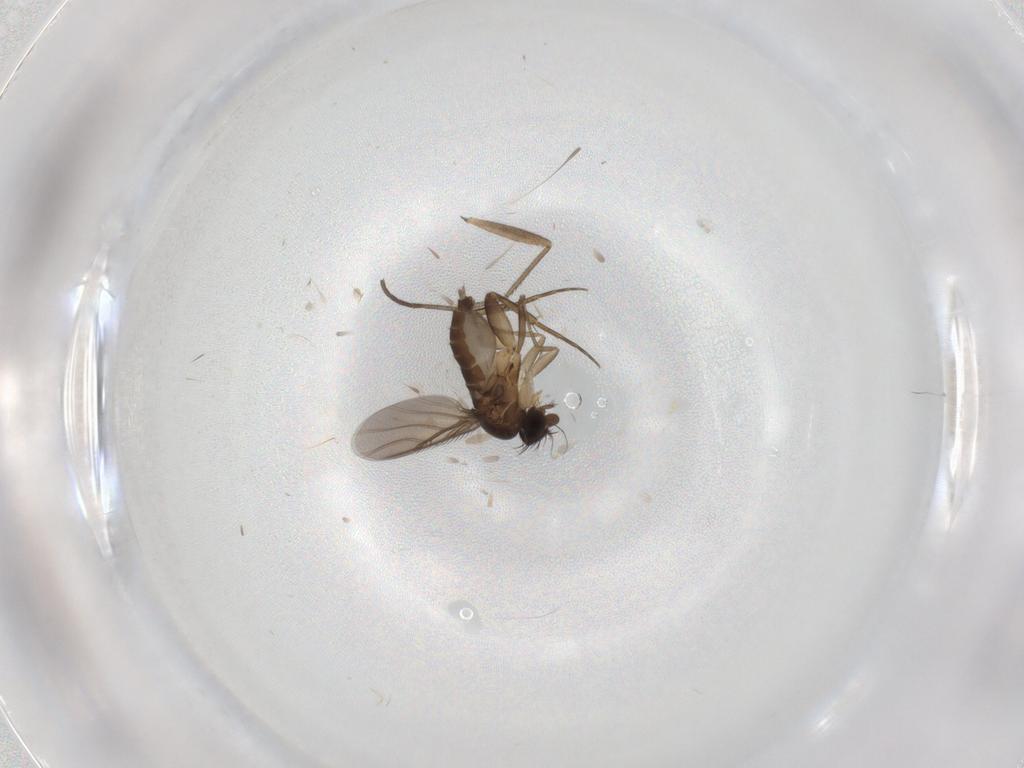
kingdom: Animalia
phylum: Arthropoda
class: Insecta
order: Diptera
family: Phoridae
